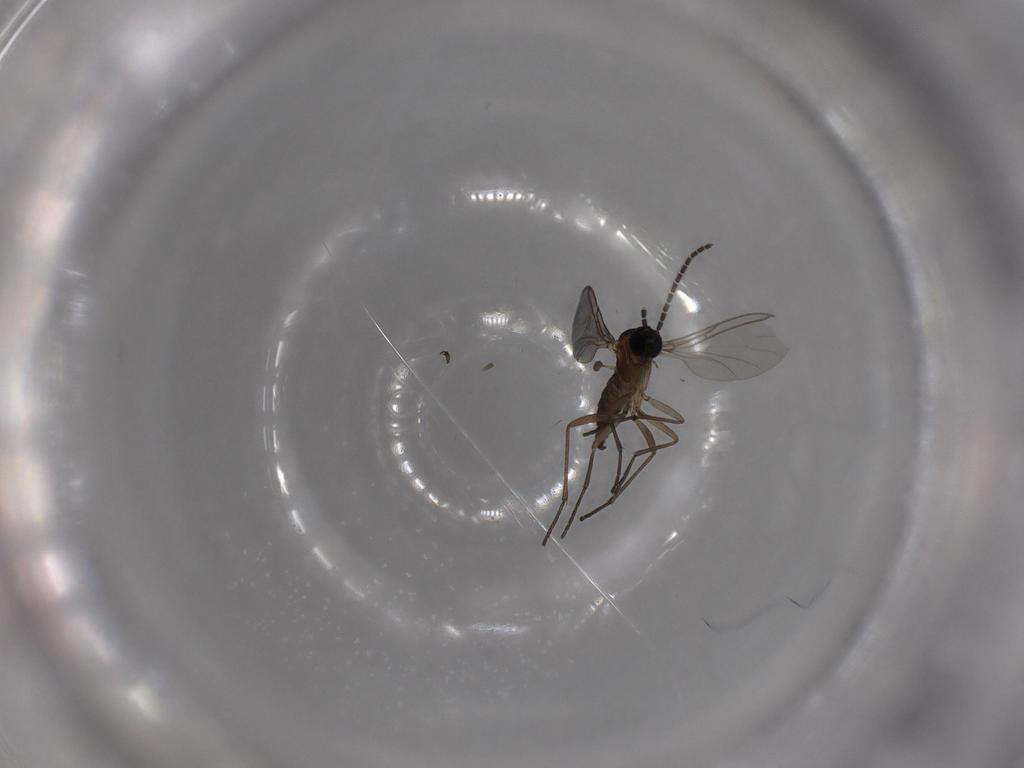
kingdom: Animalia
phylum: Arthropoda
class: Insecta
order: Diptera
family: Sciaridae
